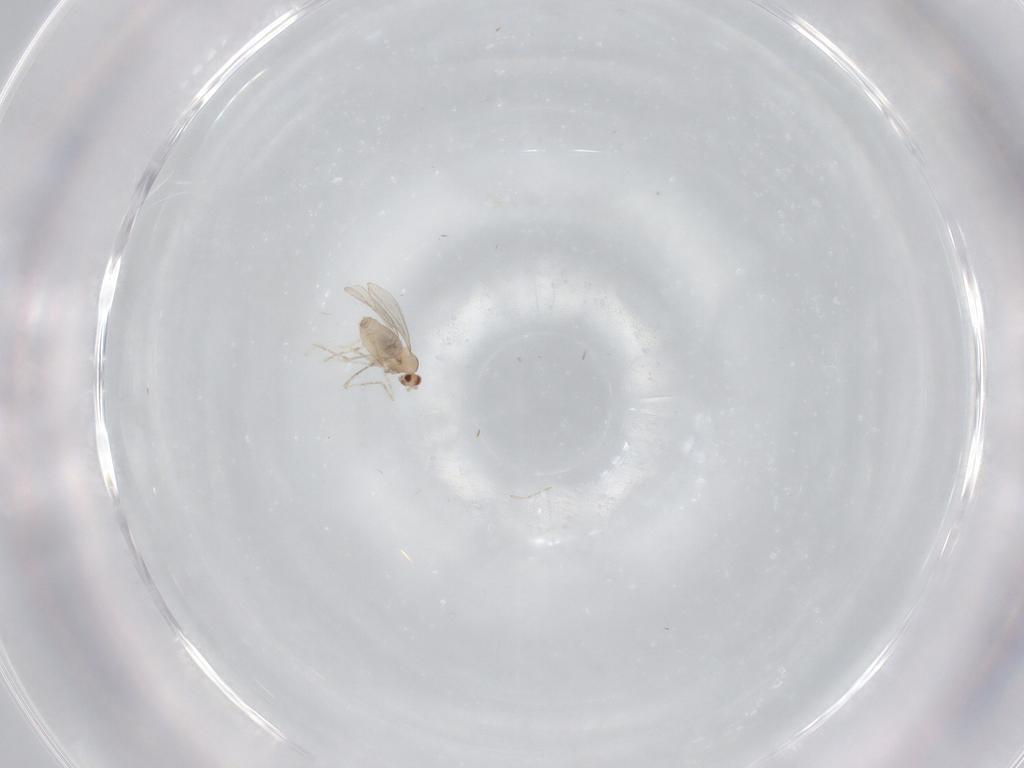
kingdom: Animalia
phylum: Arthropoda
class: Insecta
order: Diptera
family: Cecidomyiidae
